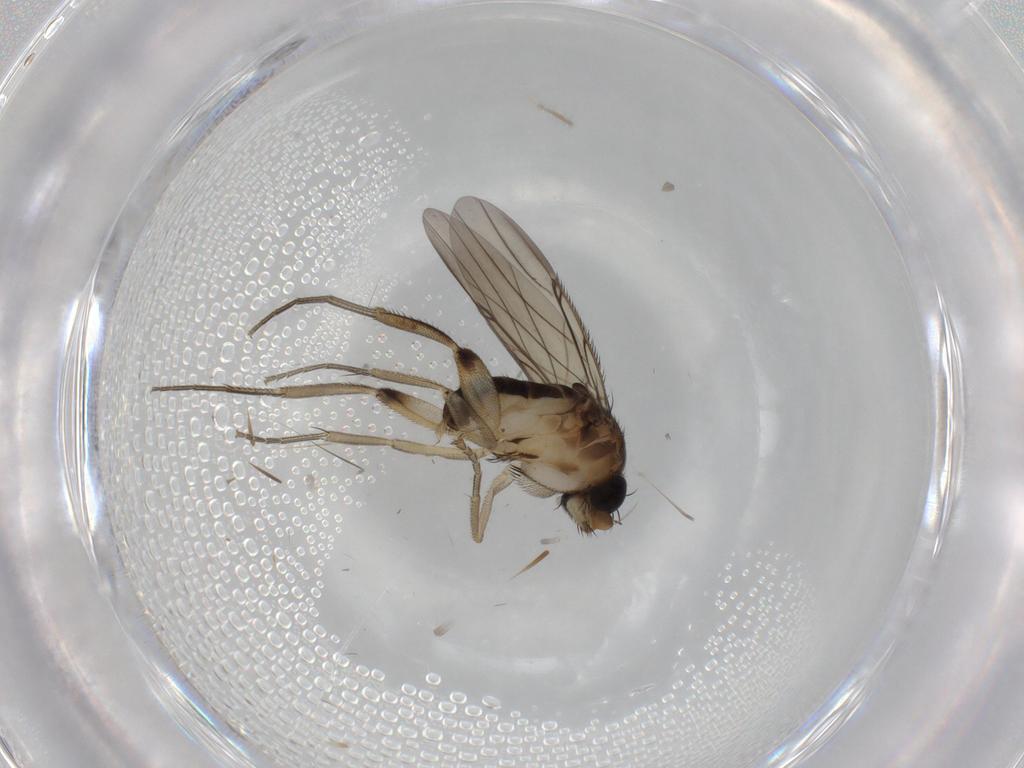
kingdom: Animalia
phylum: Arthropoda
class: Insecta
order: Diptera
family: Phoridae
